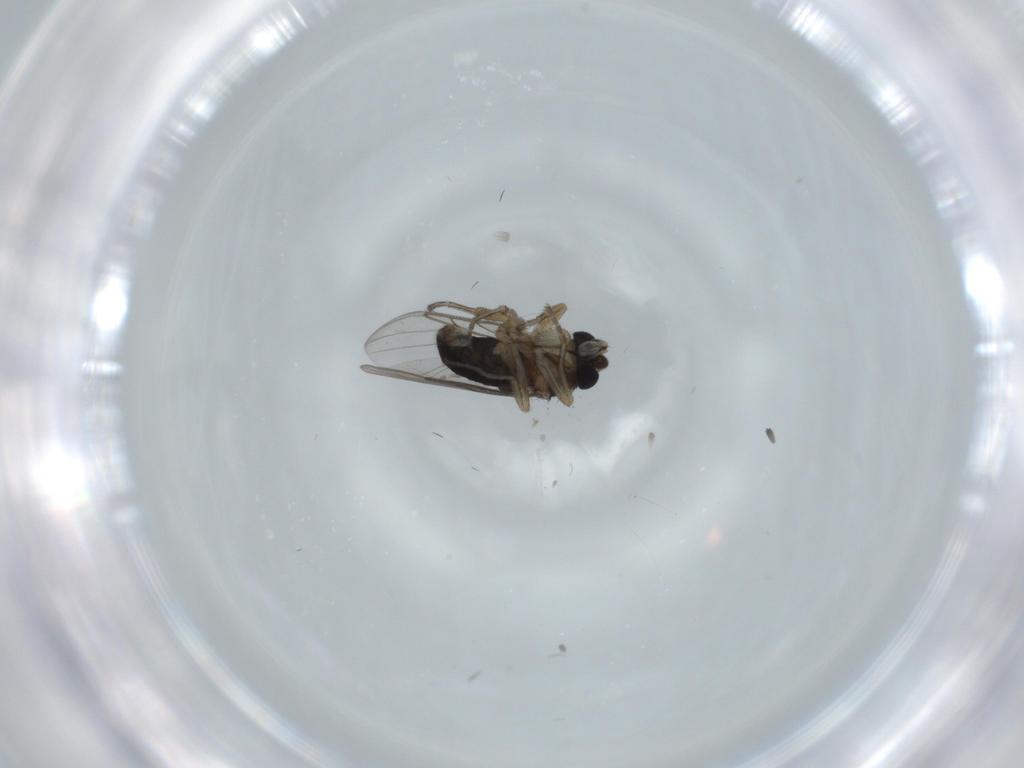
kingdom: Animalia
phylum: Arthropoda
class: Insecta
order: Diptera
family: Phoridae
